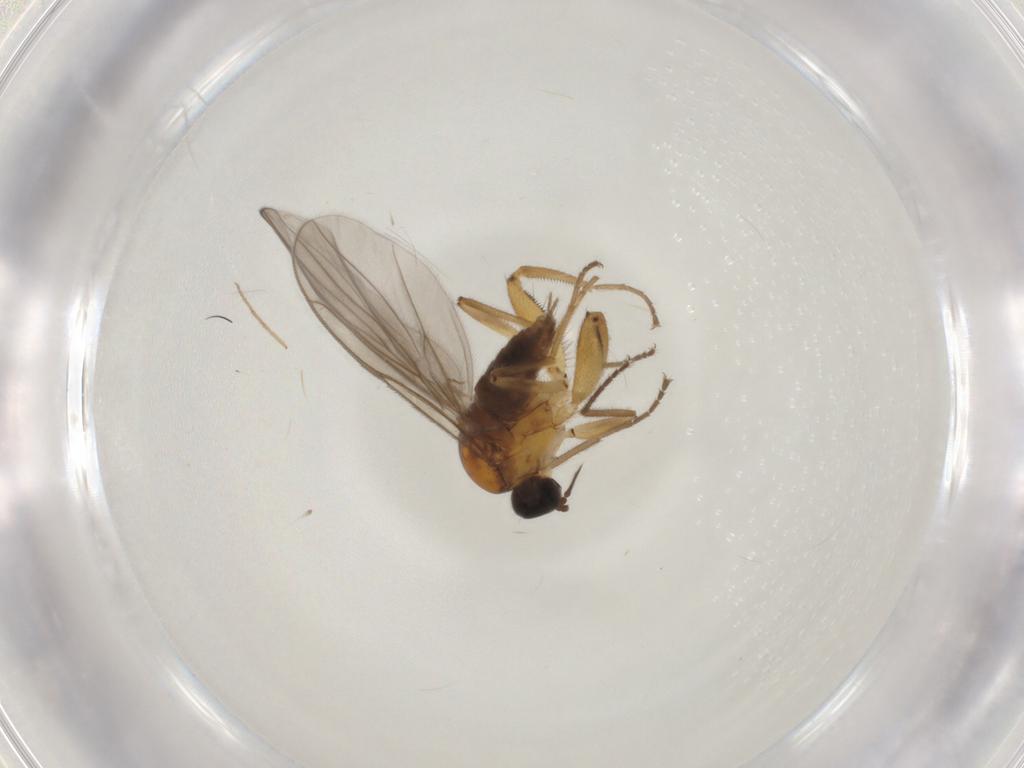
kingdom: Animalia
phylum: Arthropoda
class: Insecta
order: Diptera
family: Hybotidae
